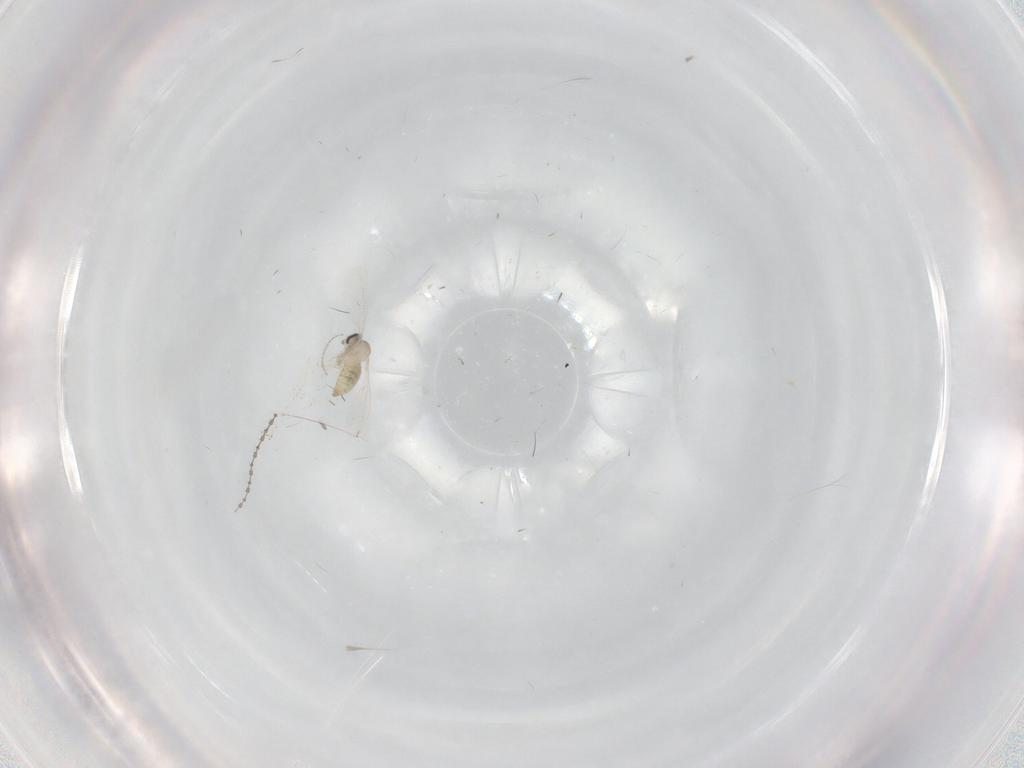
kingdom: Animalia
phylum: Arthropoda
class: Insecta
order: Diptera
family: Cecidomyiidae
